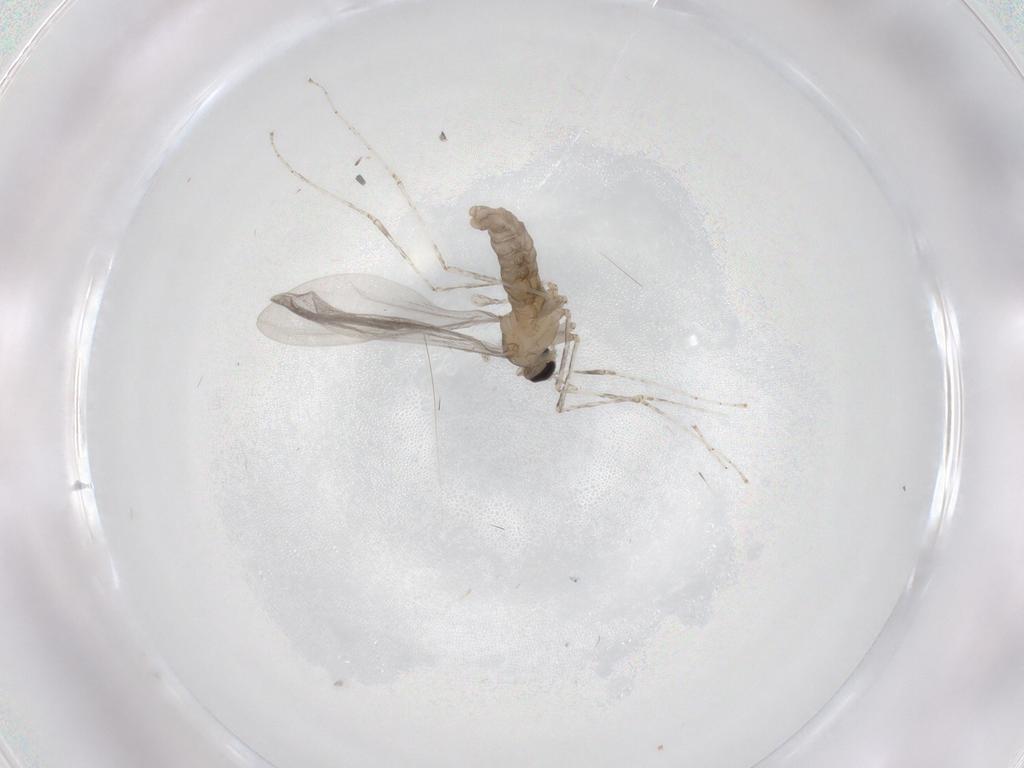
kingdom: Animalia
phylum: Arthropoda
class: Insecta
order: Diptera
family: Cecidomyiidae
